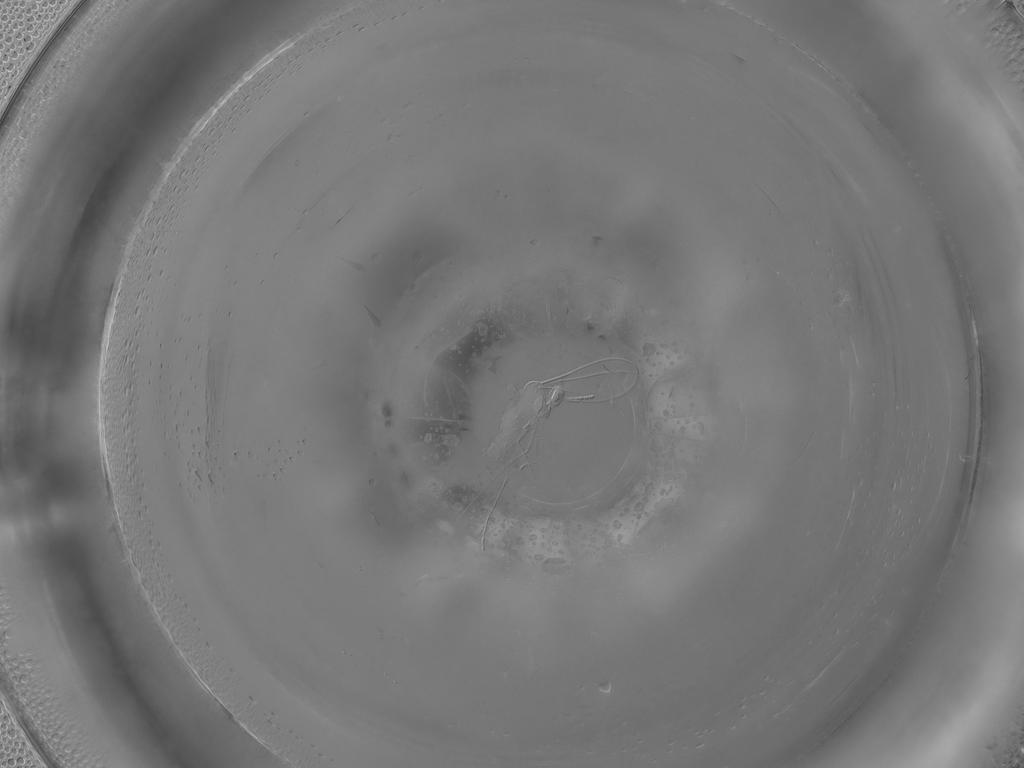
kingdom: Animalia
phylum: Arthropoda
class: Insecta
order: Diptera
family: Cecidomyiidae
